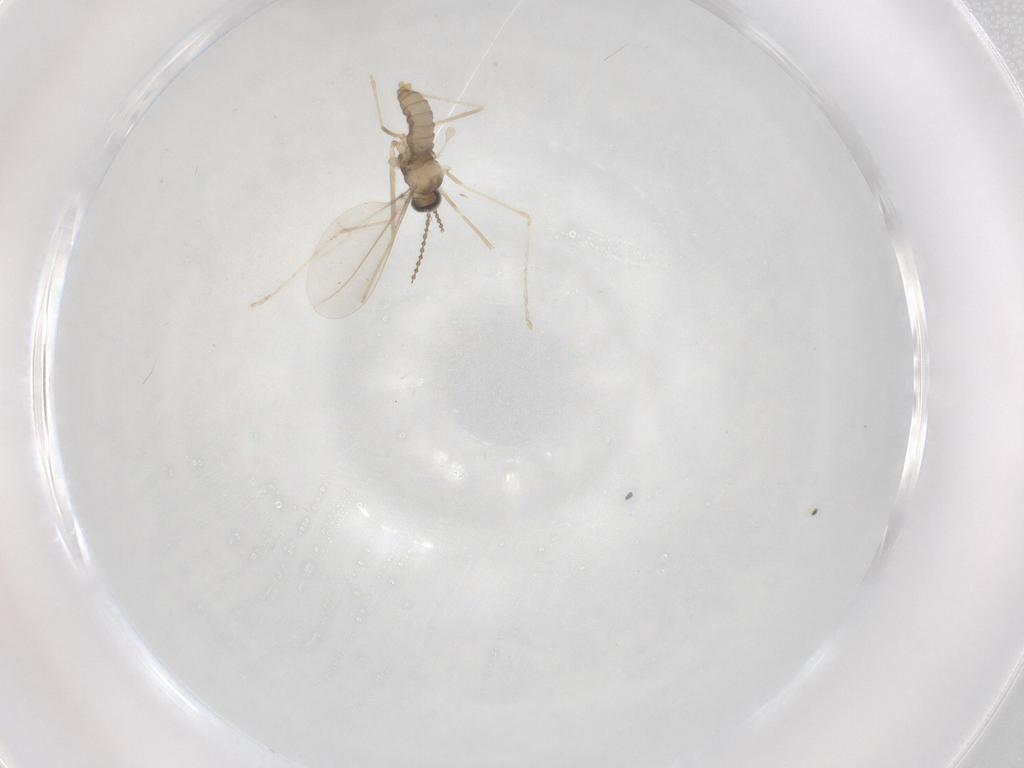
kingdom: Animalia
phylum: Arthropoda
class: Insecta
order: Diptera
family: Cecidomyiidae
